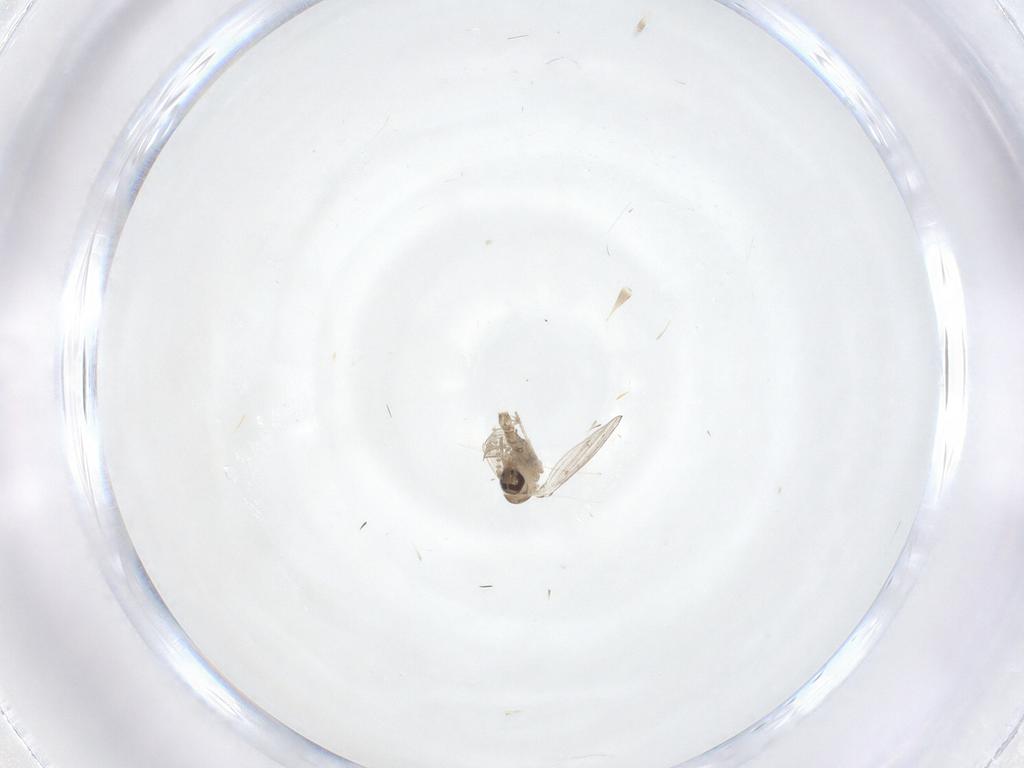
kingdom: Animalia
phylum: Arthropoda
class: Insecta
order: Diptera
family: Psychodidae
